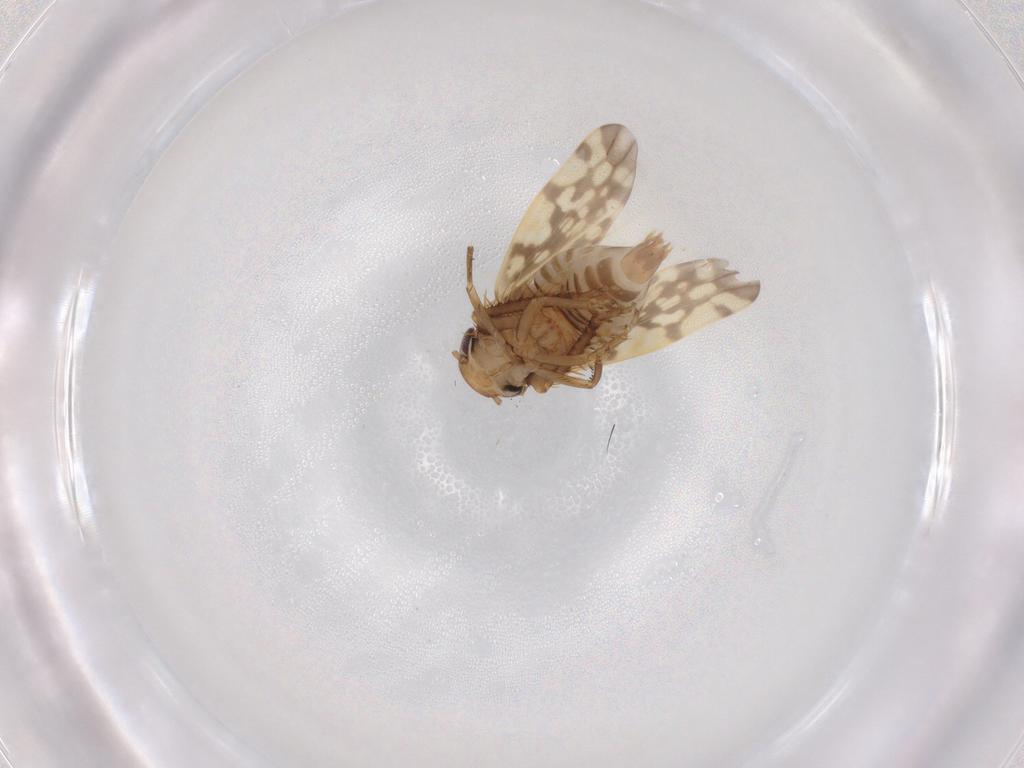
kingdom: Animalia
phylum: Arthropoda
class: Insecta
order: Hemiptera
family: Cicadellidae
